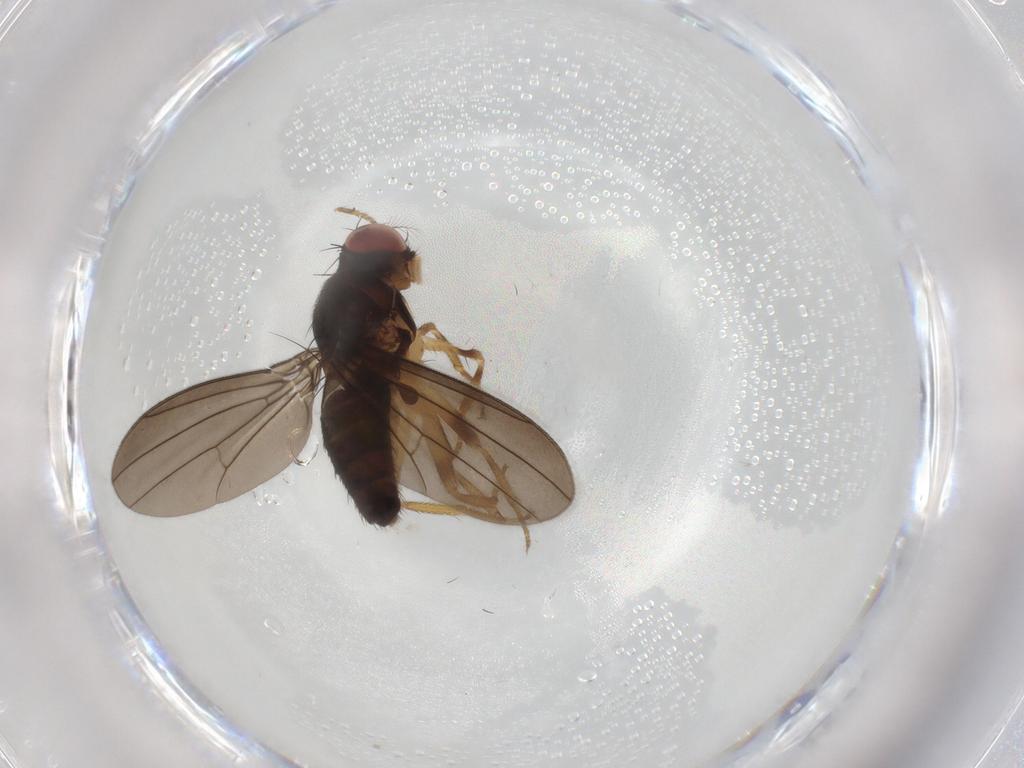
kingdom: Animalia
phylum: Arthropoda
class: Insecta
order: Diptera
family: Drosophilidae
